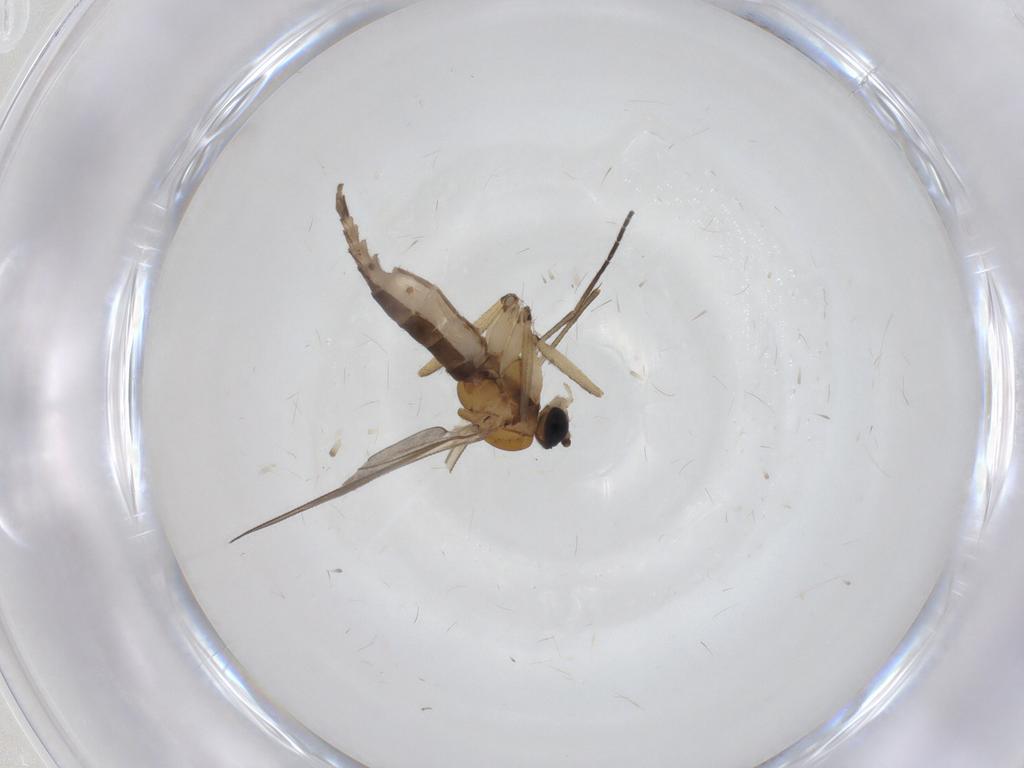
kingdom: Animalia
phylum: Arthropoda
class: Insecta
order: Diptera
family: Sciaridae
